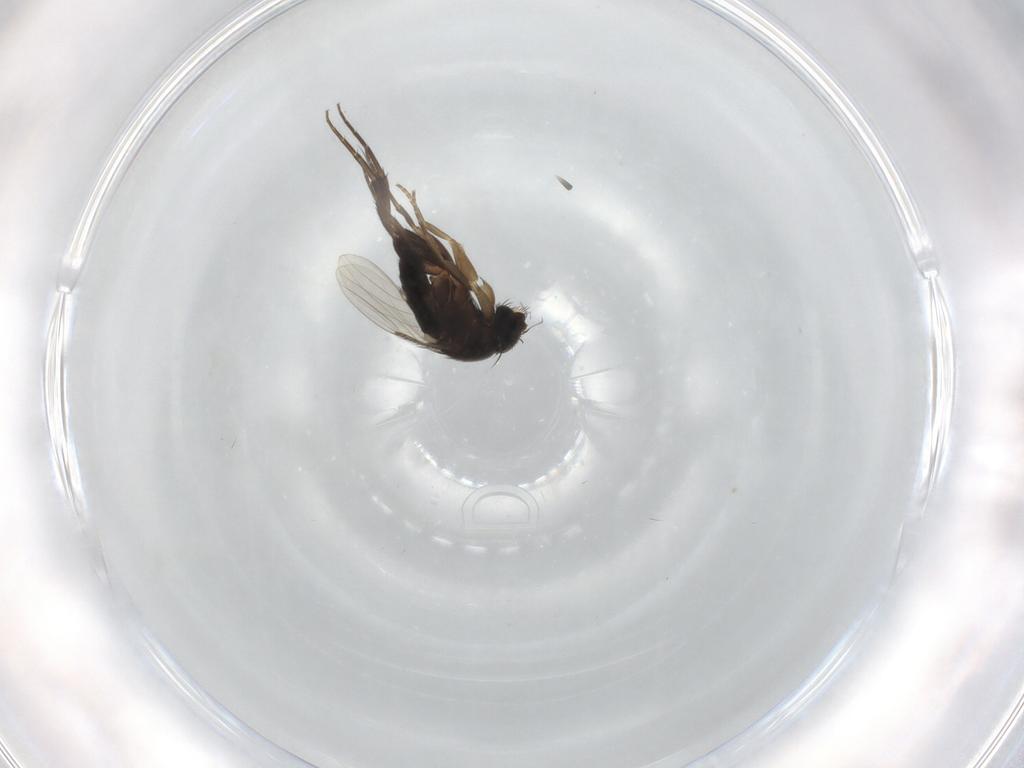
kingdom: Animalia
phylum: Arthropoda
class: Insecta
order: Diptera
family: Phoridae
